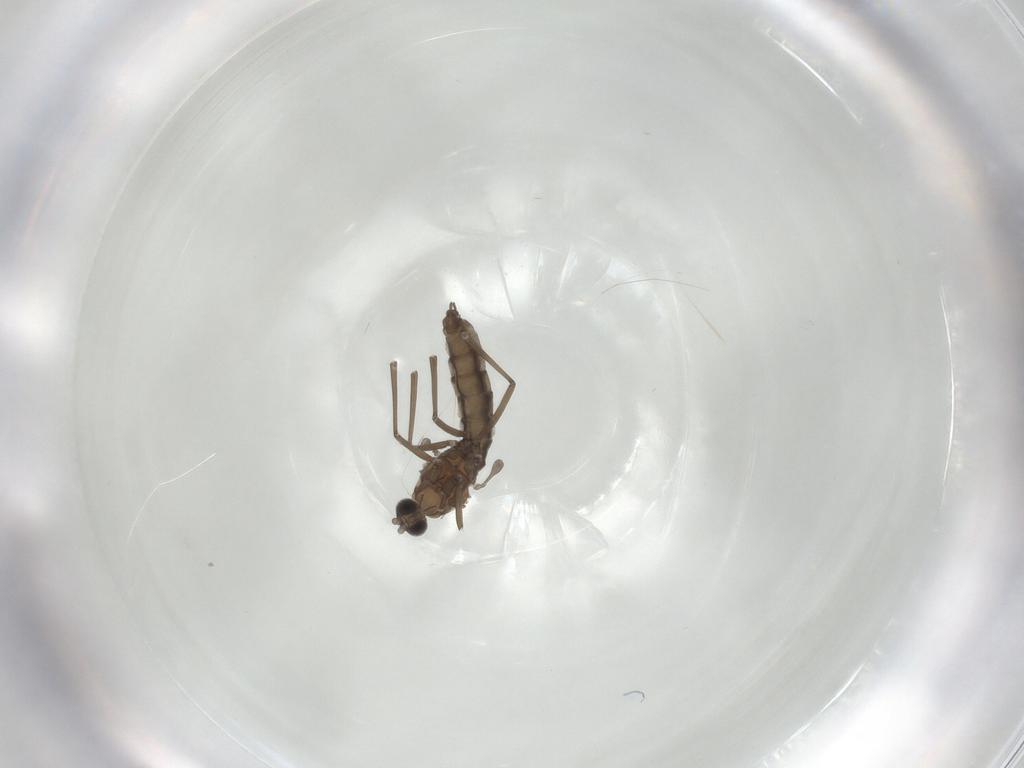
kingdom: Animalia
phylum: Arthropoda
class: Insecta
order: Diptera
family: Cecidomyiidae
